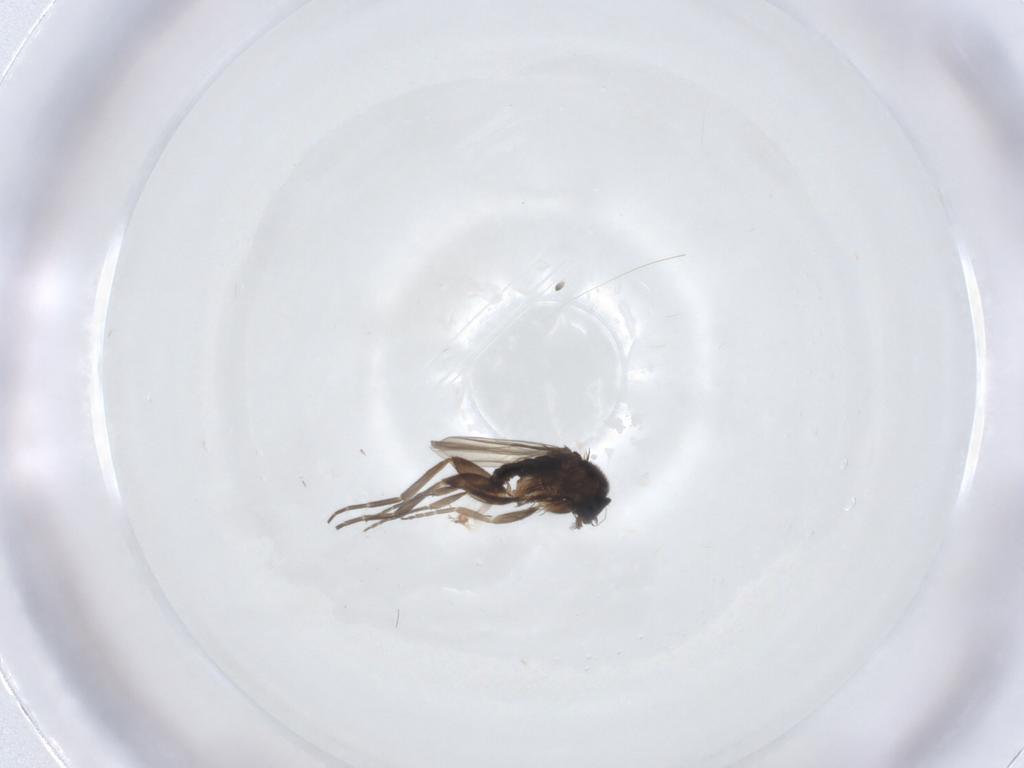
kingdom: Animalia
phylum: Arthropoda
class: Insecta
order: Diptera
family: Phoridae
